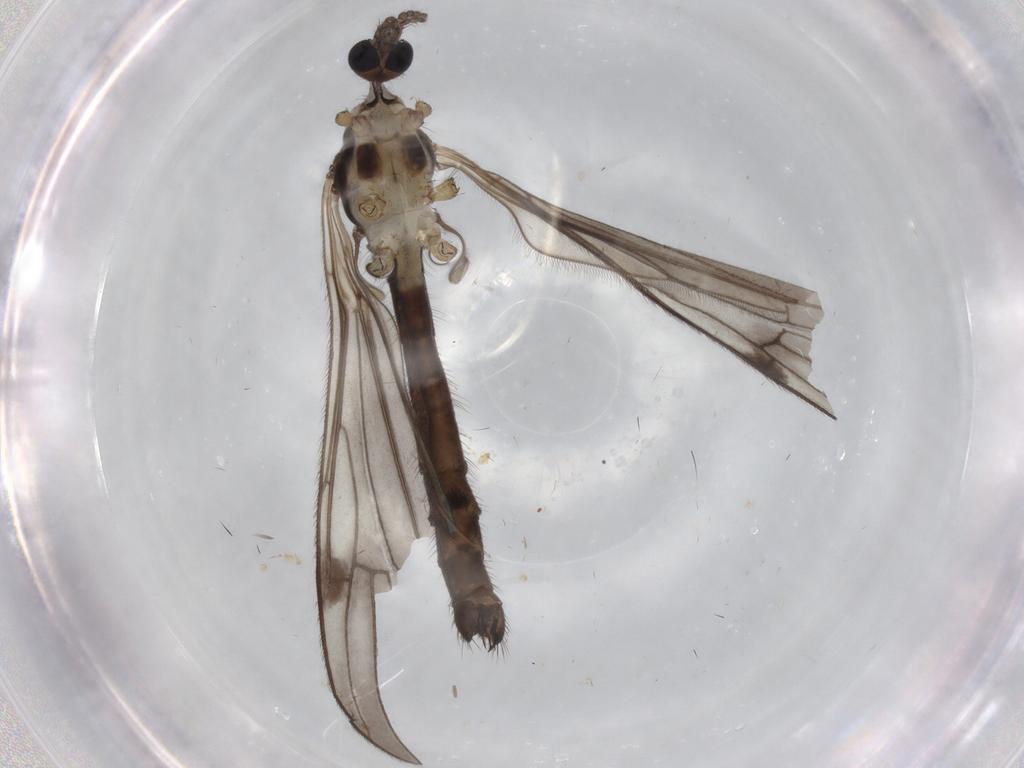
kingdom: Animalia
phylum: Arthropoda
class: Insecta
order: Diptera
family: Limoniidae
